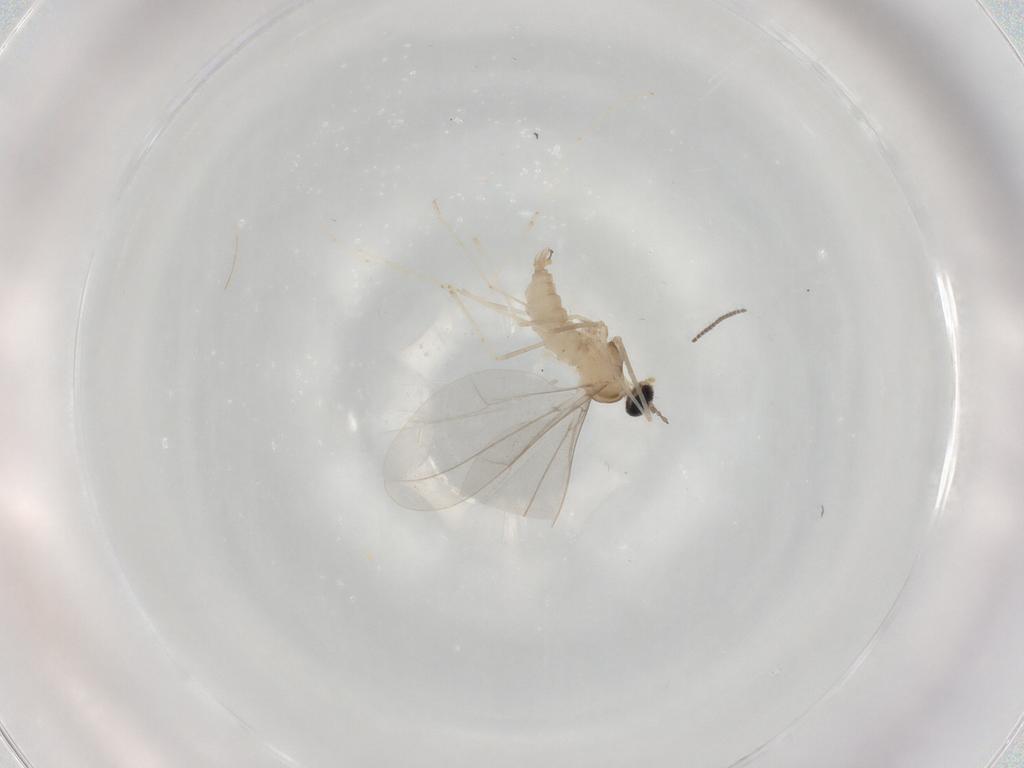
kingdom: Animalia
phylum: Arthropoda
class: Insecta
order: Diptera
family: Cecidomyiidae
